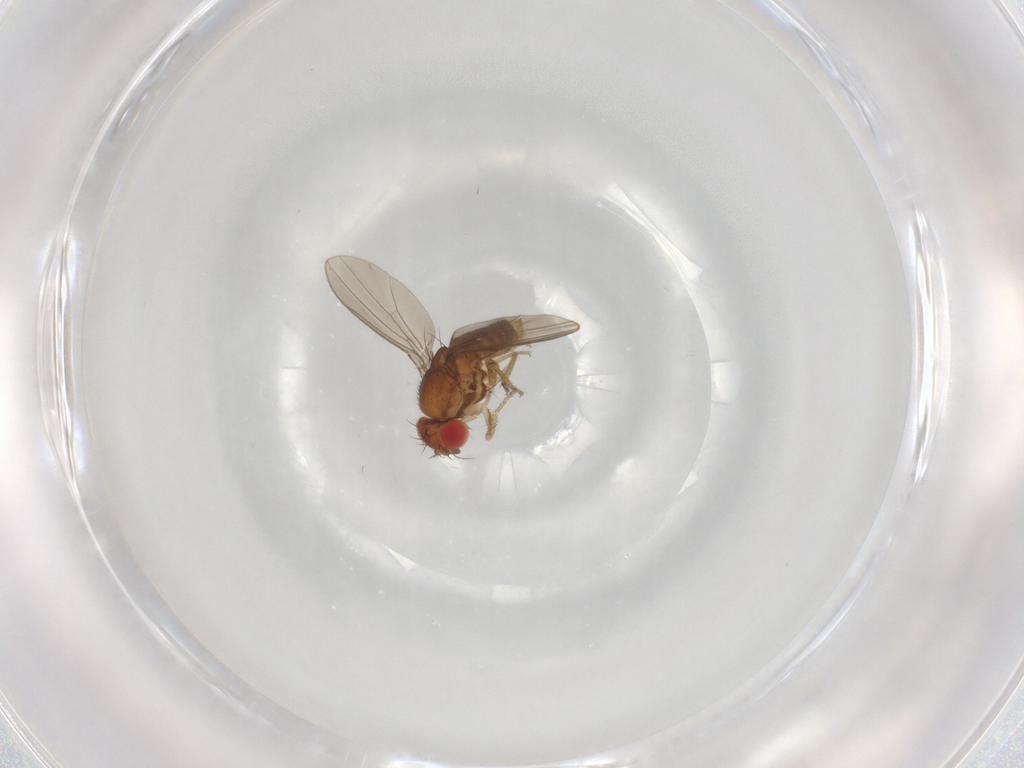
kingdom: Animalia
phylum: Arthropoda
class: Insecta
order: Diptera
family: Drosophilidae
